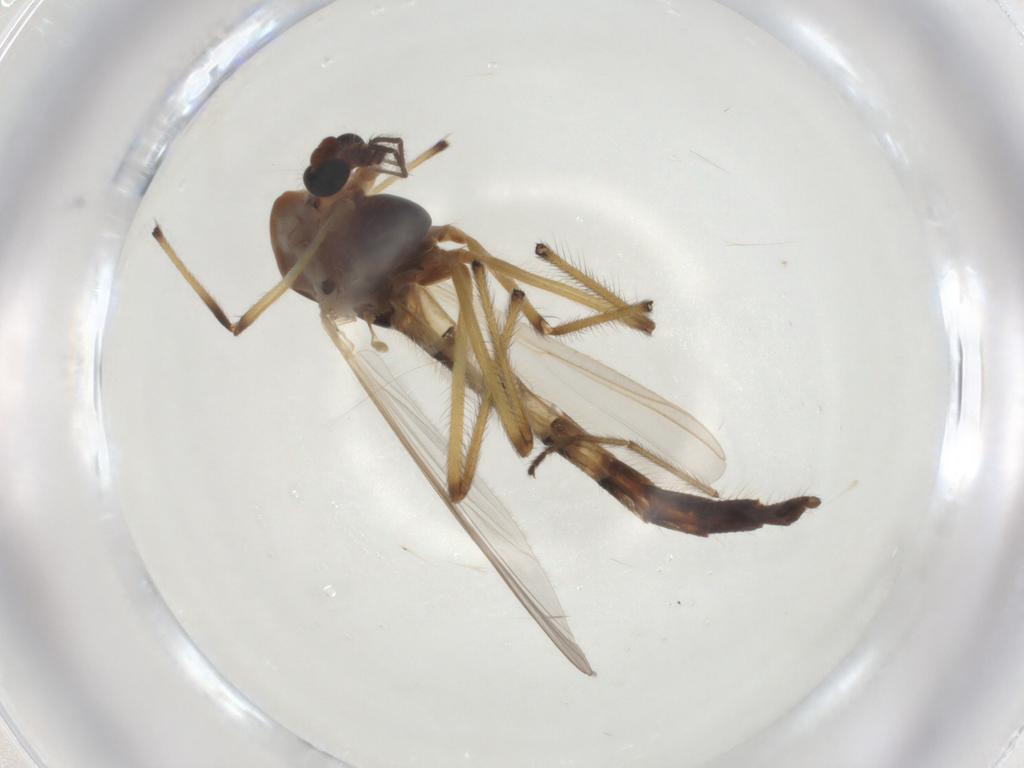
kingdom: Animalia
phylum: Arthropoda
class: Insecta
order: Diptera
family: Chironomidae
